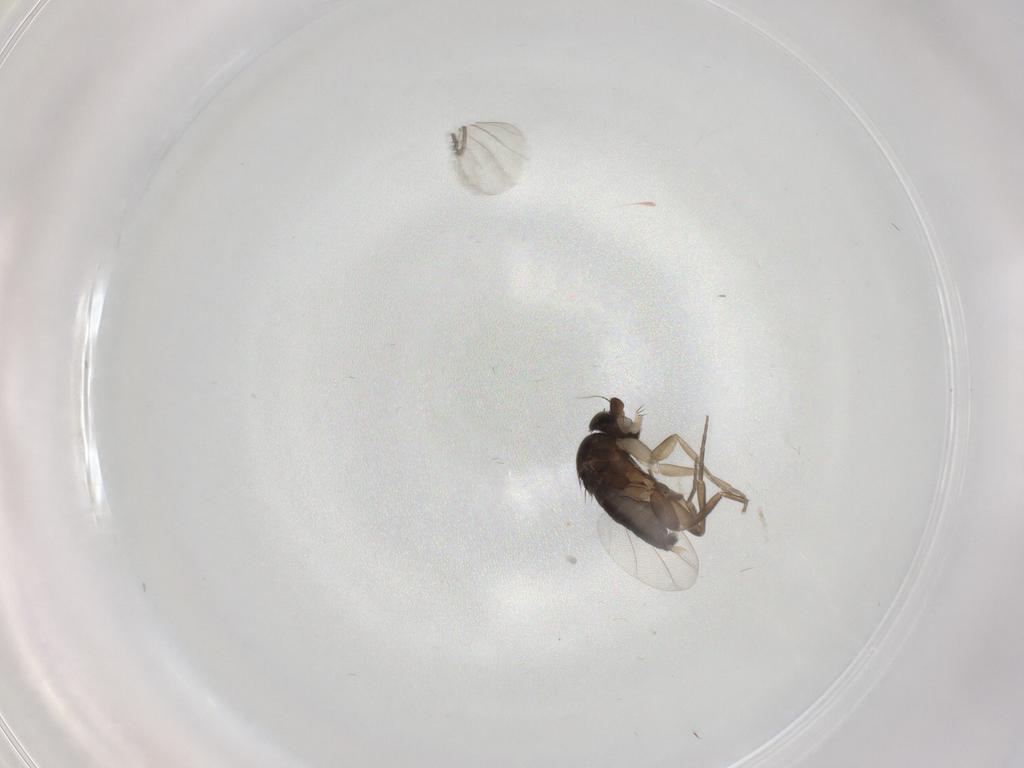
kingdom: Animalia
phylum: Arthropoda
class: Insecta
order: Diptera
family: Phoridae
